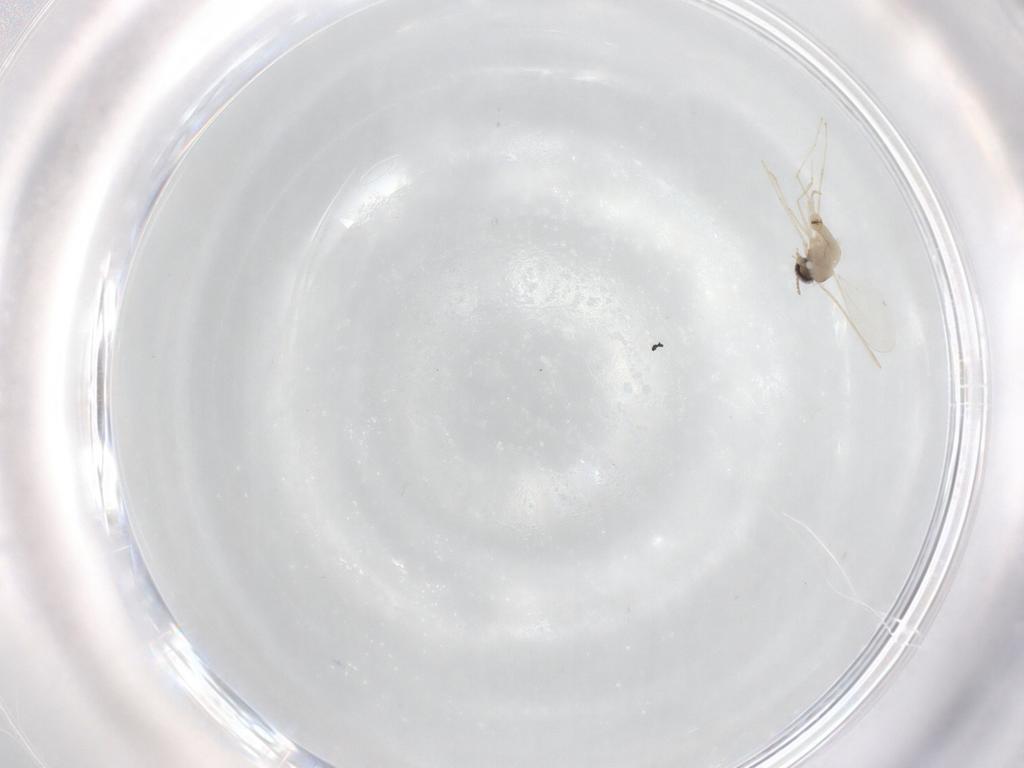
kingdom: Animalia
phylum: Arthropoda
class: Insecta
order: Diptera
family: Cecidomyiidae
